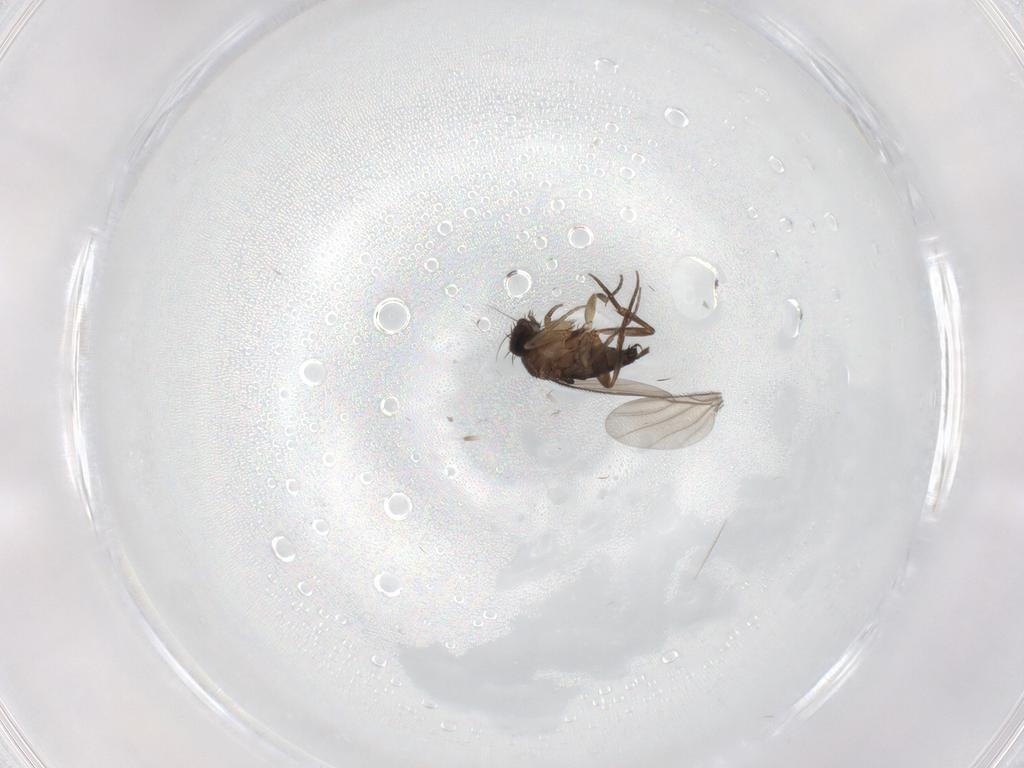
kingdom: Animalia
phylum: Arthropoda
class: Insecta
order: Diptera
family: Phoridae
